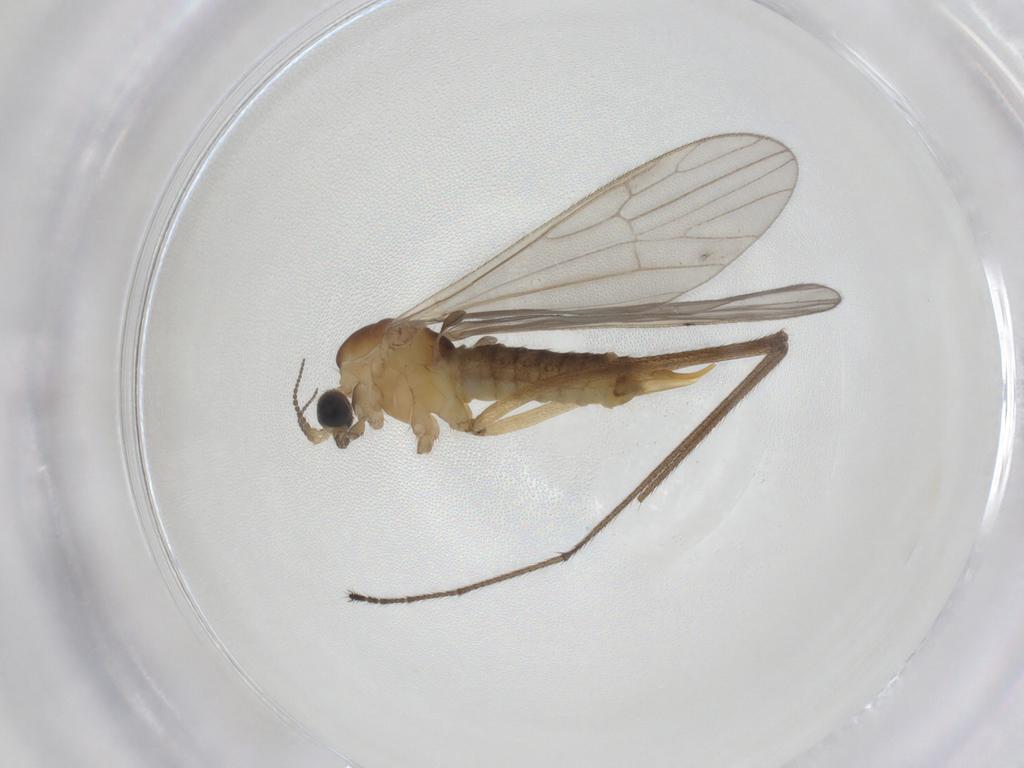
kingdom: Animalia
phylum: Arthropoda
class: Insecta
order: Diptera
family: Limoniidae
